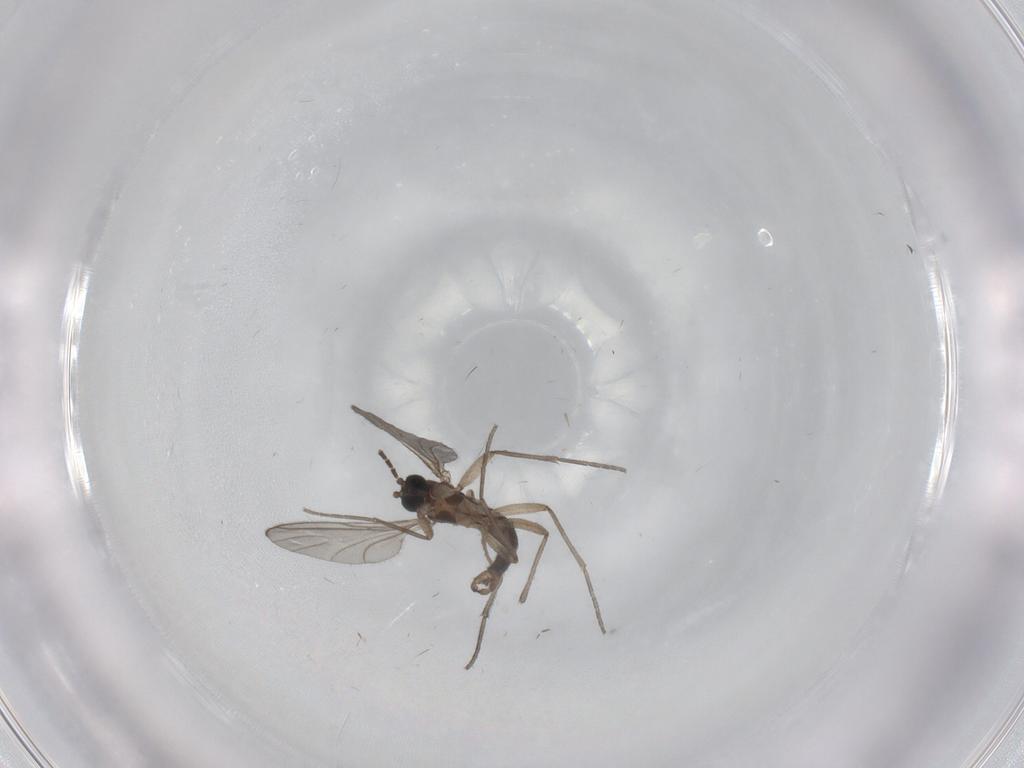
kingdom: Animalia
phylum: Arthropoda
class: Insecta
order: Diptera
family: Sciaridae
